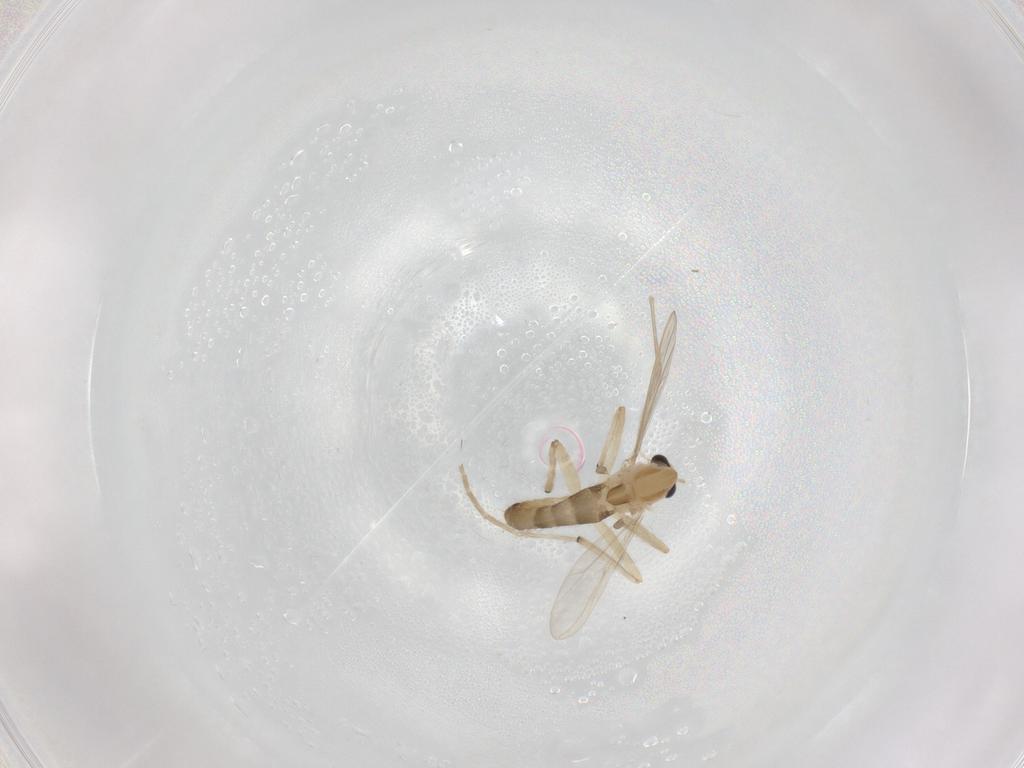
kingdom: Animalia
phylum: Arthropoda
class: Insecta
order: Diptera
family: Chironomidae
